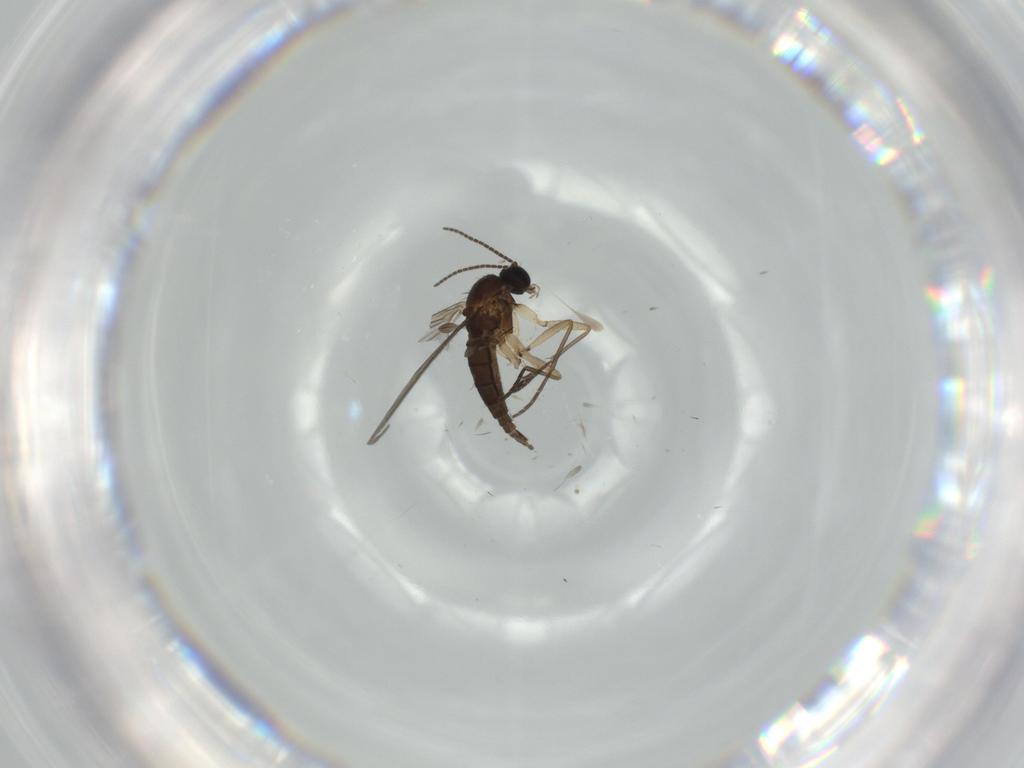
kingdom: Animalia
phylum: Arthropoda
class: Insecta
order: Diptera
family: Sciaridae
